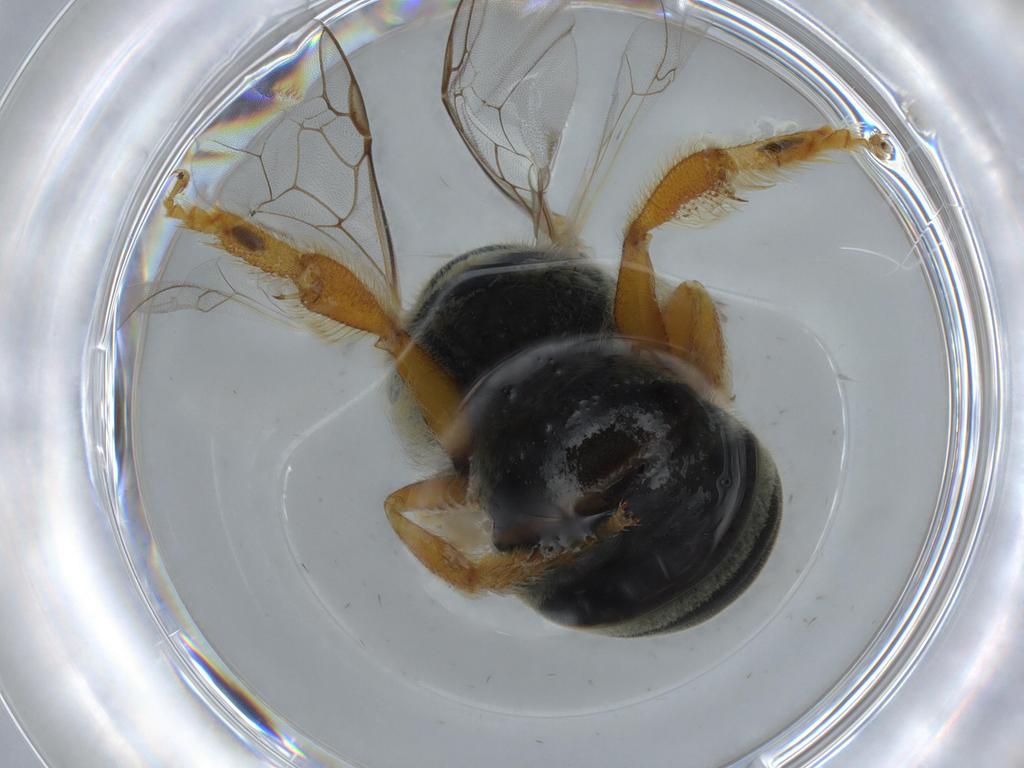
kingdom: Animalia
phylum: Arthropoda
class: Insecta
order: Hymenoptera
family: Halictidae
